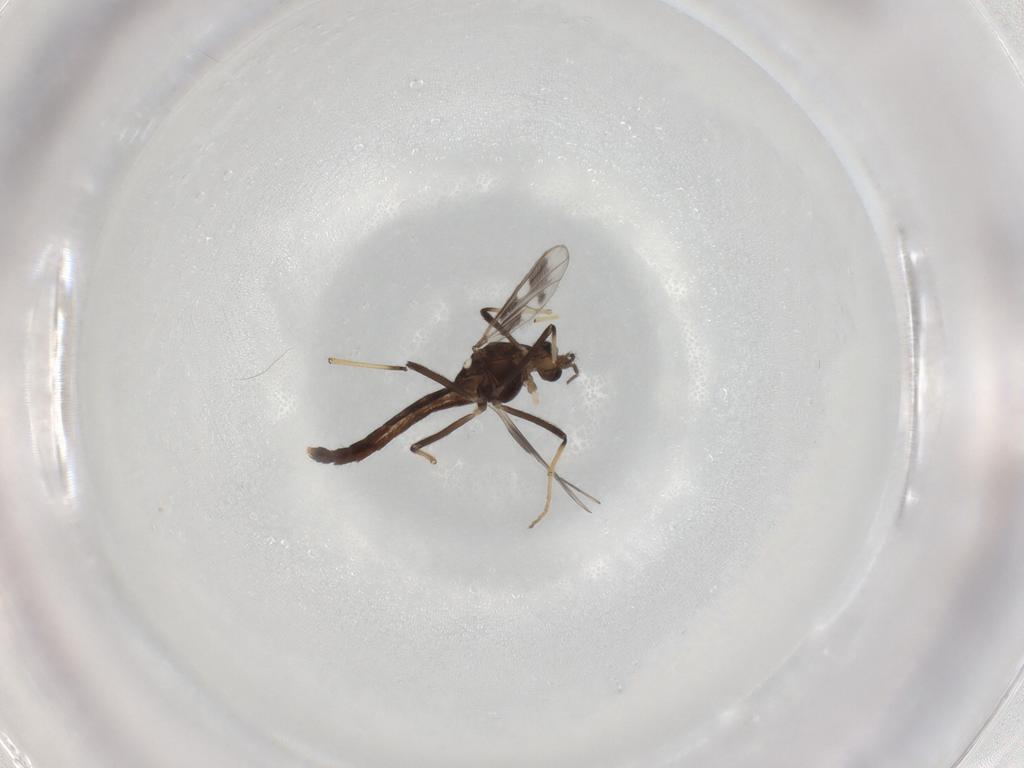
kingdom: Animalia
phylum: Arthropoda
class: Insecta
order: Diptera
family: Chironomidae
